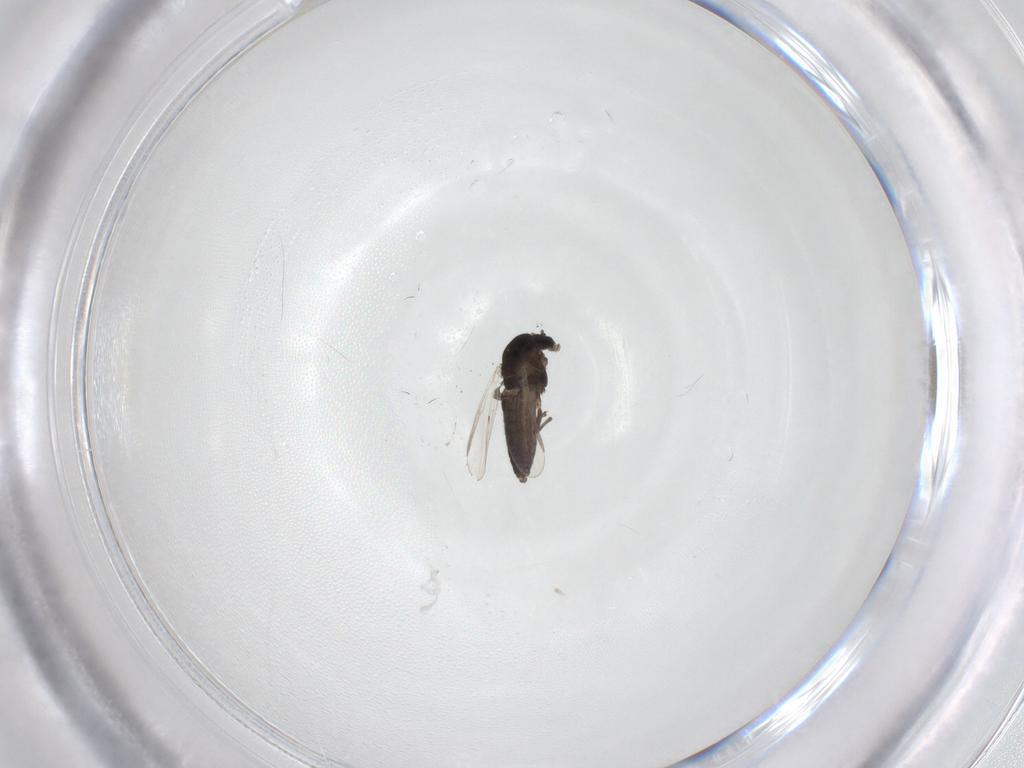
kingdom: Animalia
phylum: Arthropoda
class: Insecta
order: Diptera
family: Chironomidae
